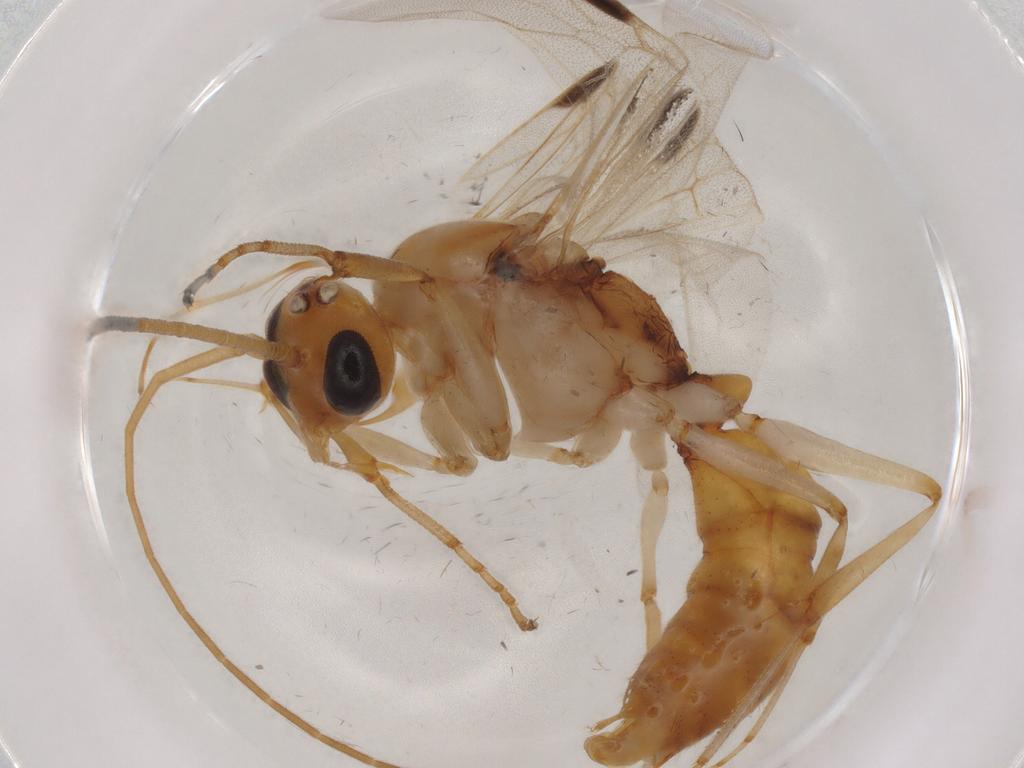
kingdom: Animalia
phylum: Arthropoda
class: Insecta
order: Hymenoptera
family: Formicidae
